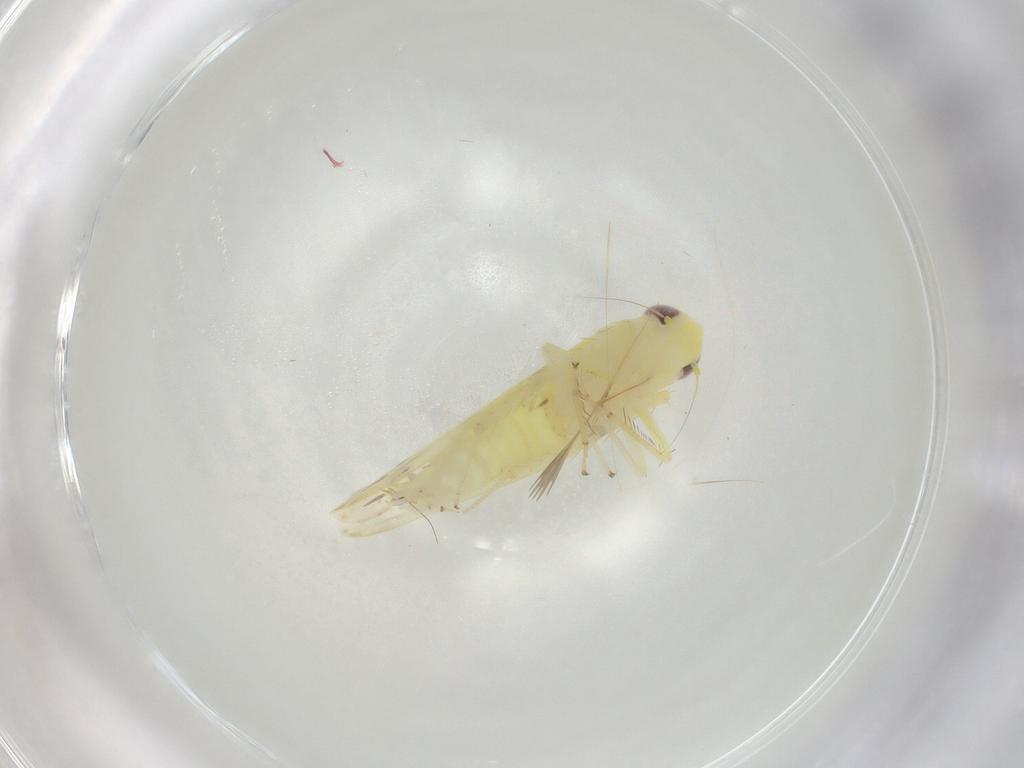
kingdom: Animalia
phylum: Arthropoda
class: Insecta
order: Hemiptera
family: Cicadellidae
